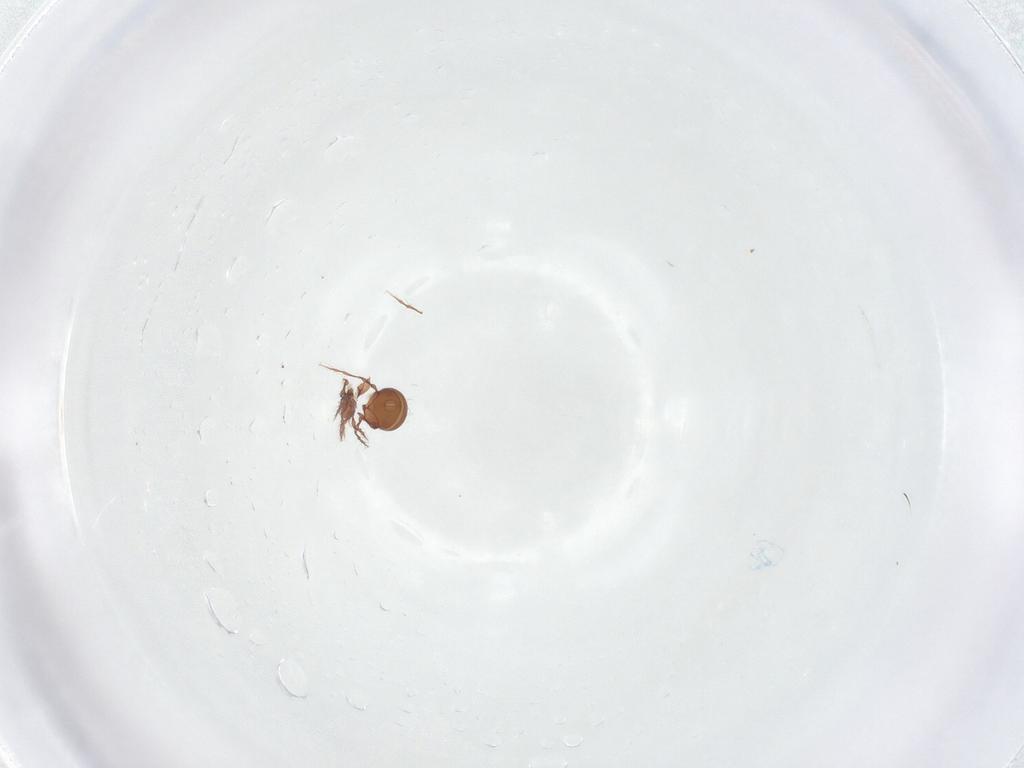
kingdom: Animalia
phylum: Arthropoda
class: Arachnida
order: Sarcoptiformes
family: Oppiidae
